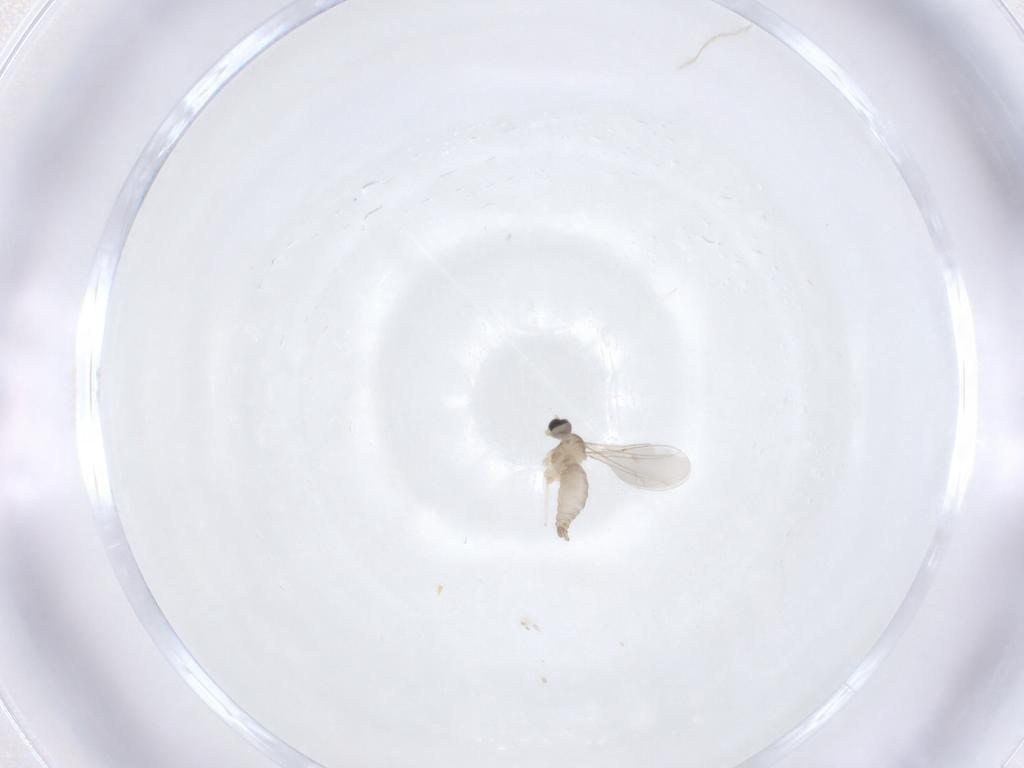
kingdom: Animalia
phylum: Arthropoda
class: Insecta
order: Diptera
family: Cecidomyiidae
